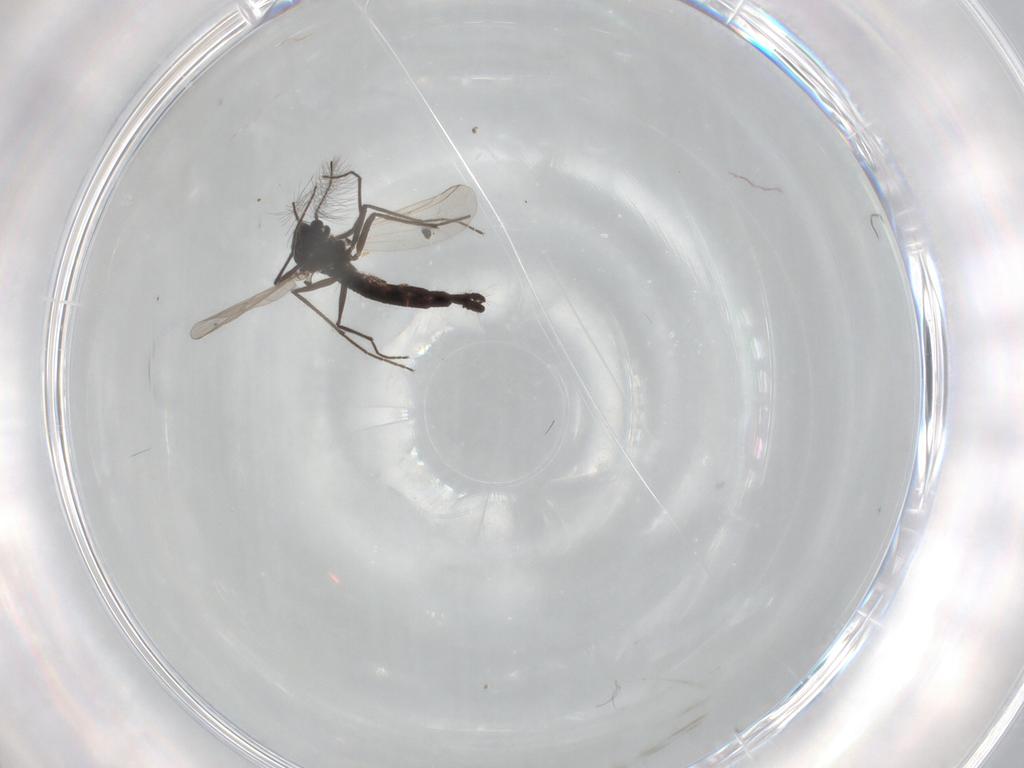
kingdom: Animalia
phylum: Arthropoda
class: Insecta
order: Diptera
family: Chironomidae
